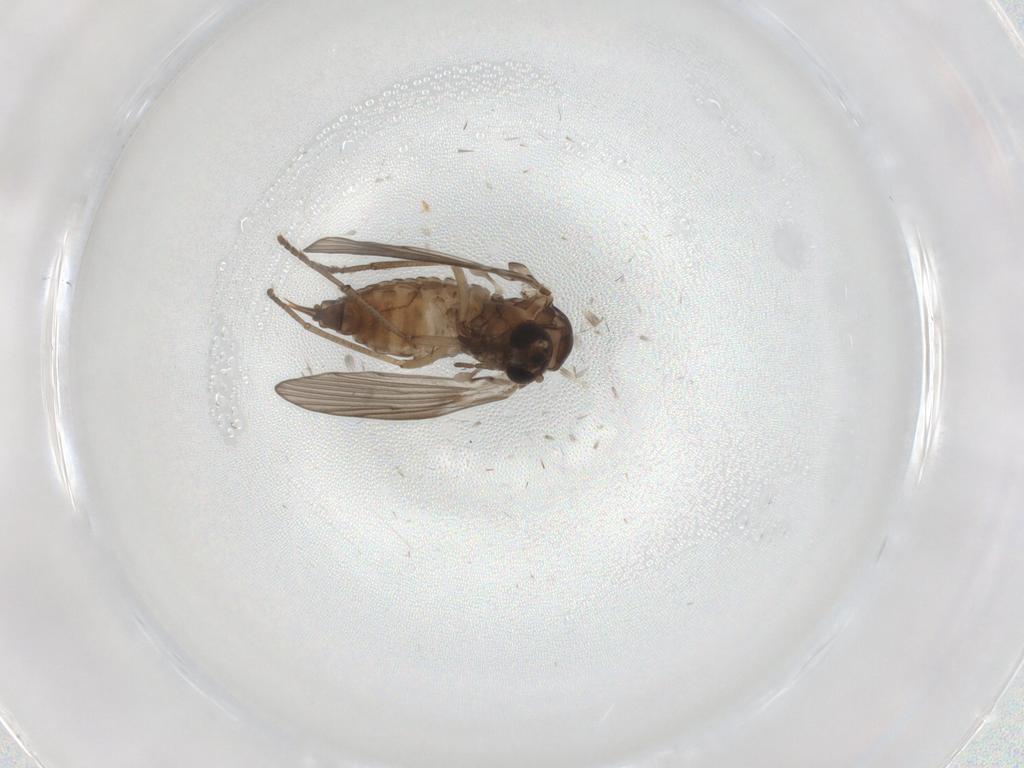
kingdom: Animalia
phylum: Arthropoda
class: Insecta
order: Diptera
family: Psychodidae
